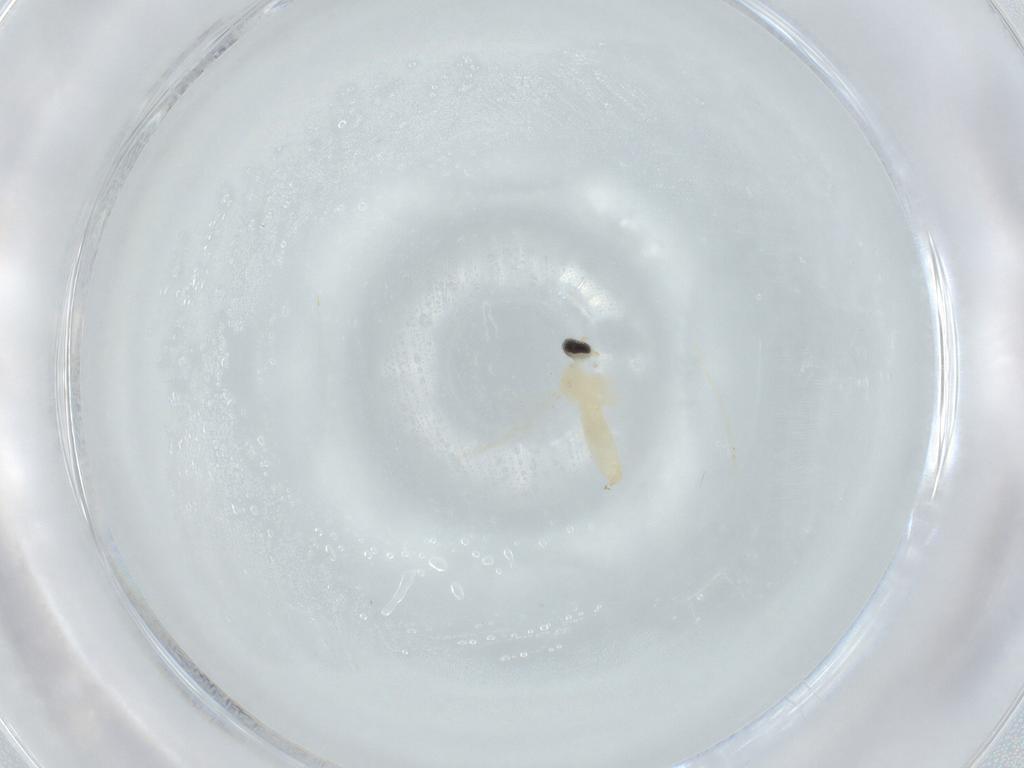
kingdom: Animalia
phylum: Arthropoda
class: Insecta
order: Diptera
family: Cecidomyiidae
